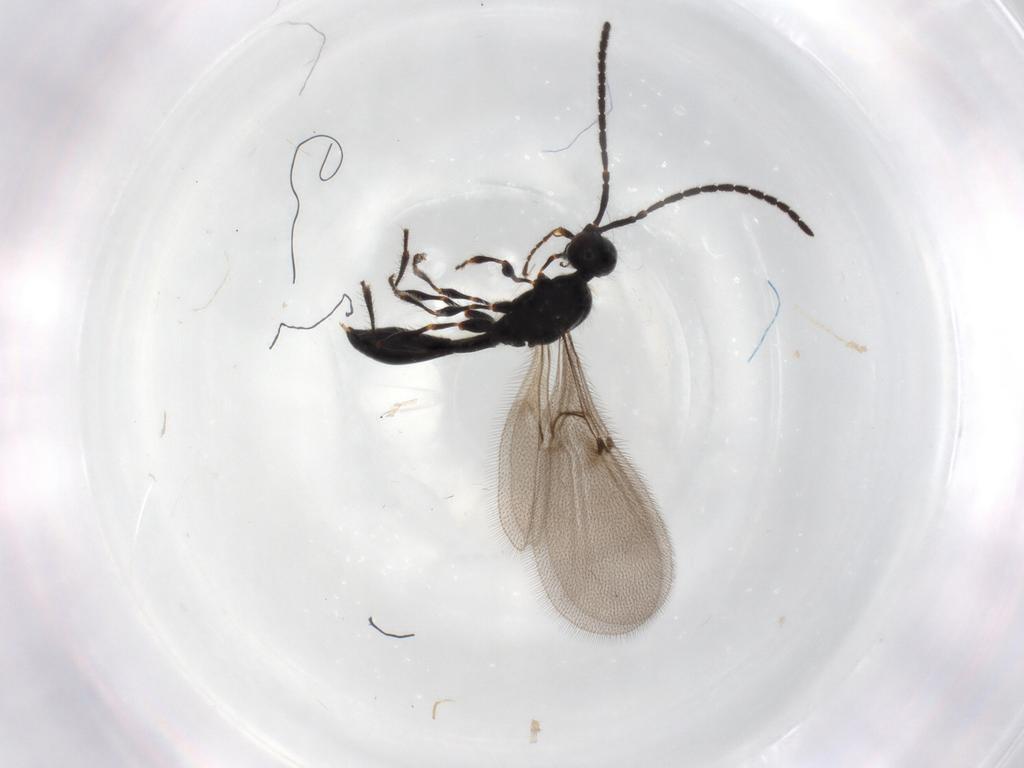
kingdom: Animalia
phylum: Arthropoda
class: Insecta
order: Hymenoptera
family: Diapriidae
